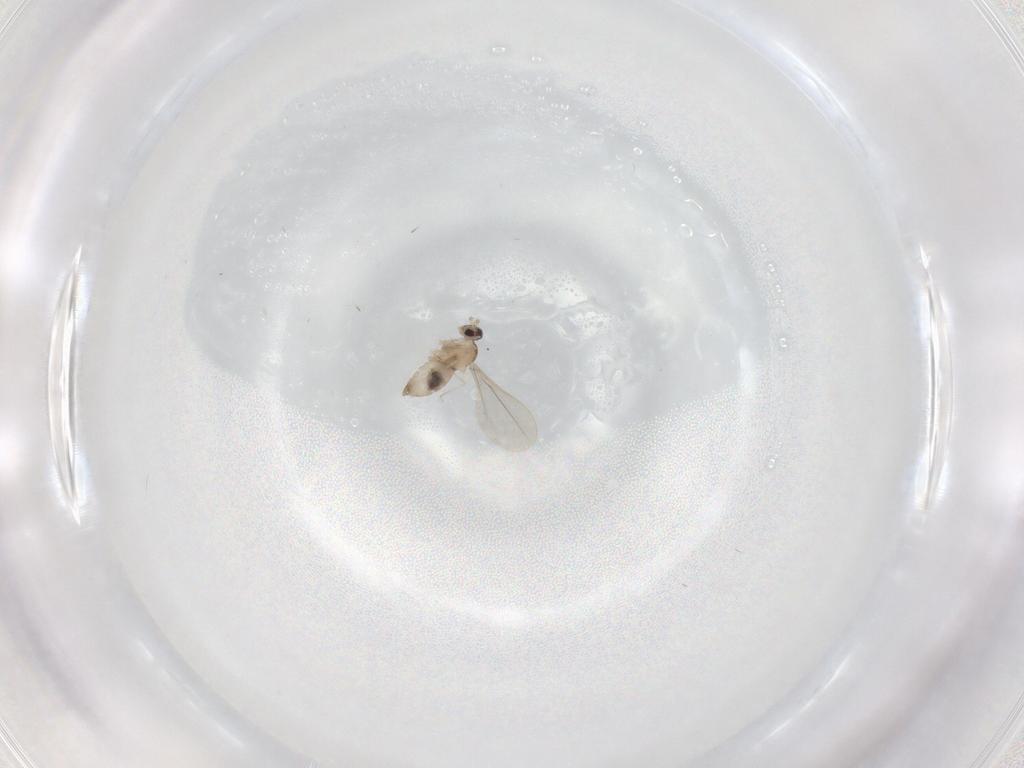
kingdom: Animalia
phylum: Arthropoda
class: Insecta
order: Diptera
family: Cecidomyiidae
